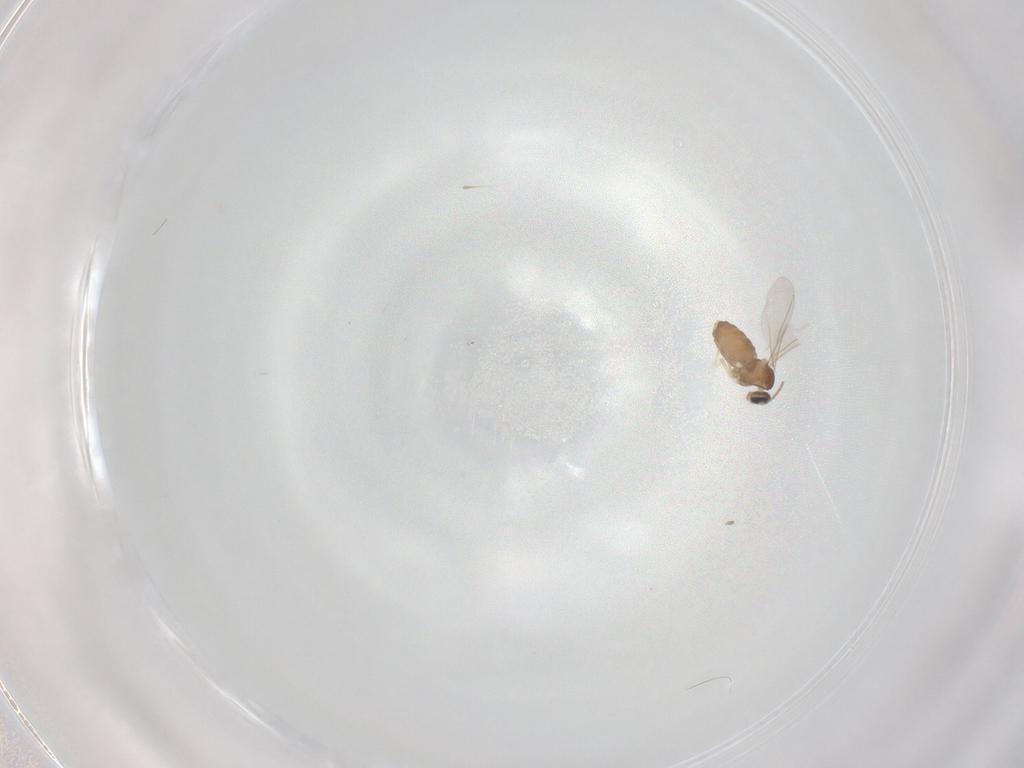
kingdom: Animalia
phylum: Arthropoda
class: Insecta
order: Diptera
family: Cecidomyiidae
